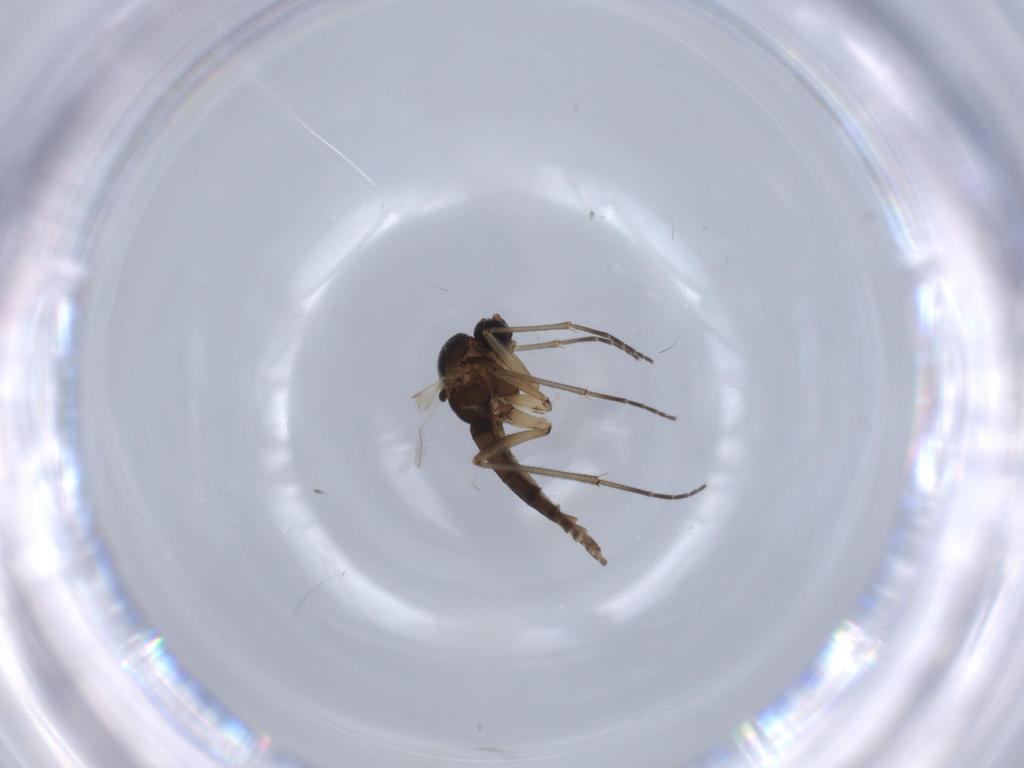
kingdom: Animalia
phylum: Arthropoda
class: Insecta
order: Diptera
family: Sciaridae
